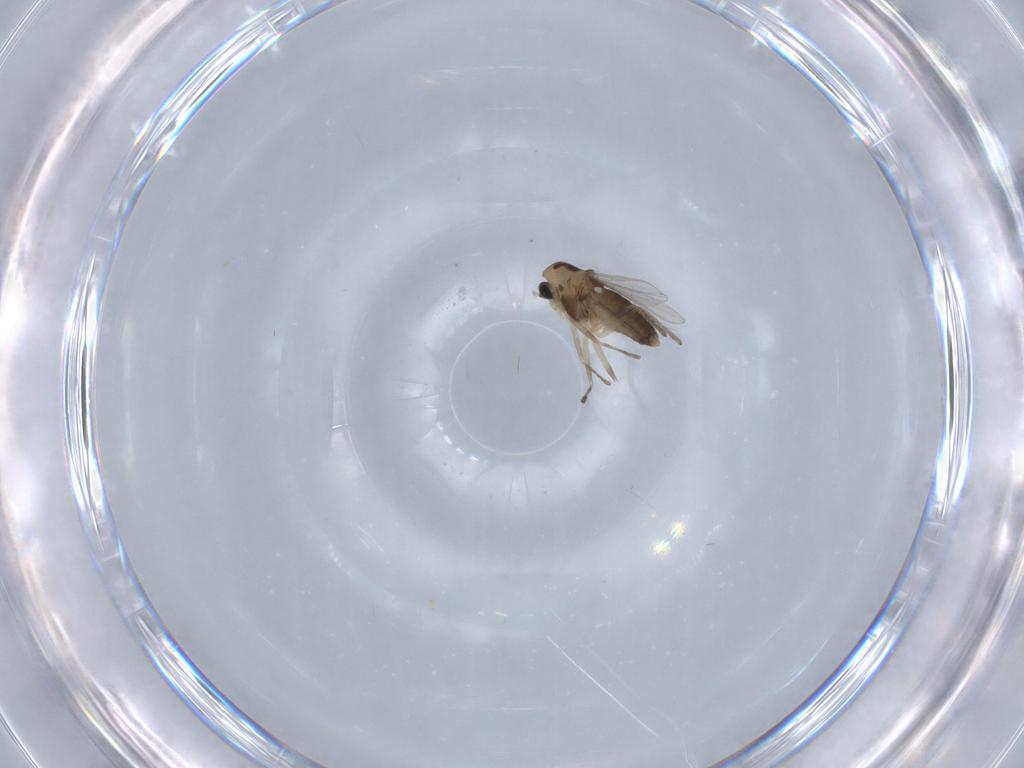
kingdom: Animalia
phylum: Arthropoda
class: Insecta
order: Diptera
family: Chironomidae
